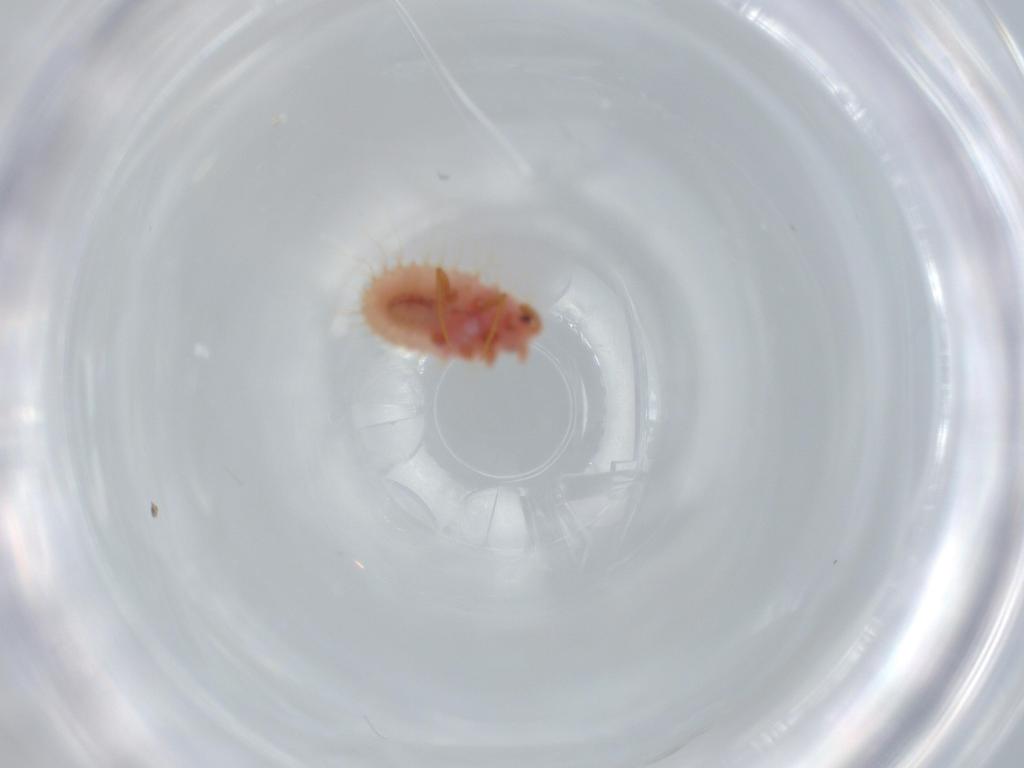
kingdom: Animalia
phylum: Arthropoda
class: Insecta
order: Hemiptera
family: Coccoidea_incertae_sedis
